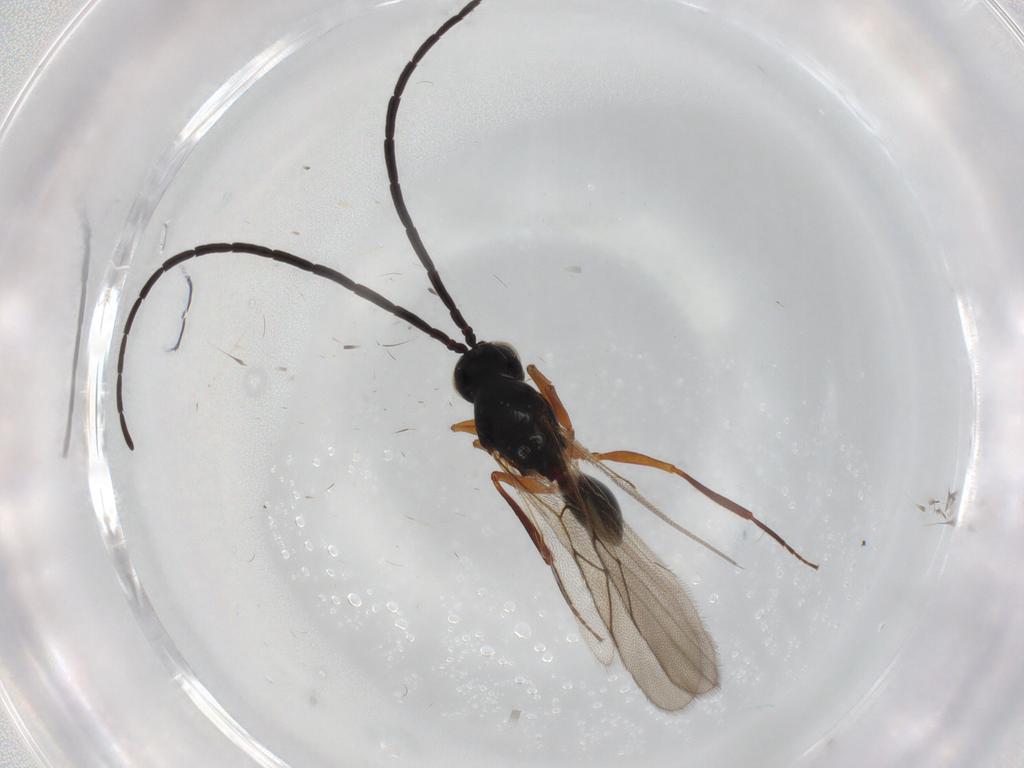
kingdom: Animalia
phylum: Arthropoda
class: Insecta
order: Hymenoptera
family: Figitidae
